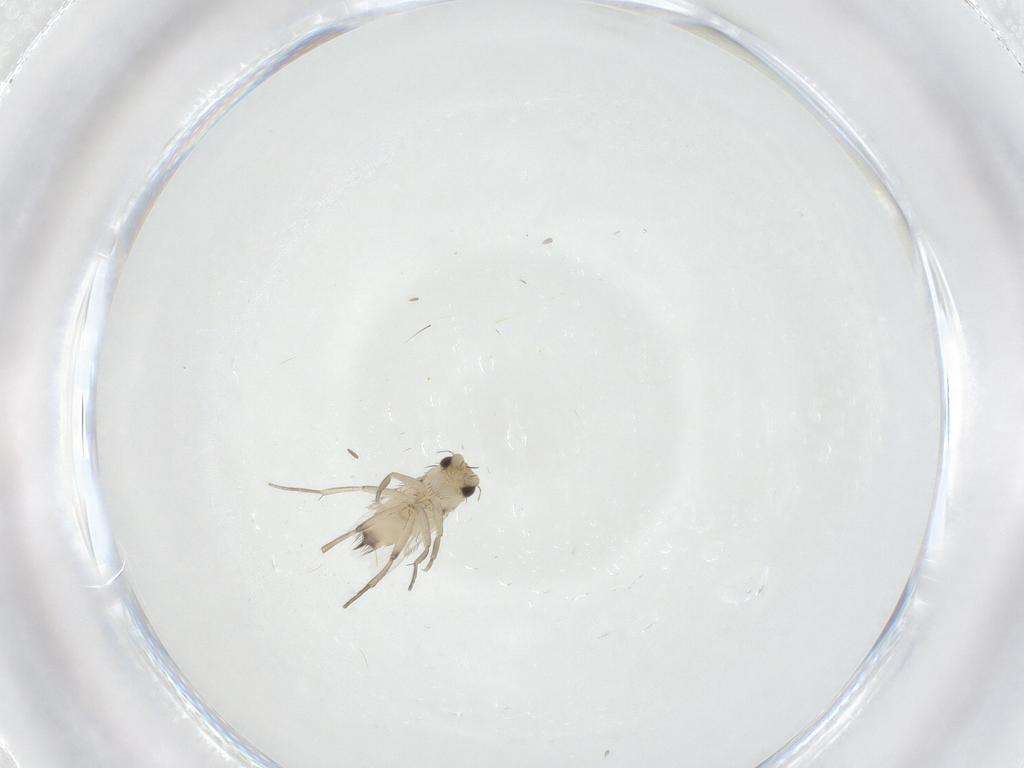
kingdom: Animalia
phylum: Arthropoda
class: Insecta
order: Diptera
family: Phoridae
